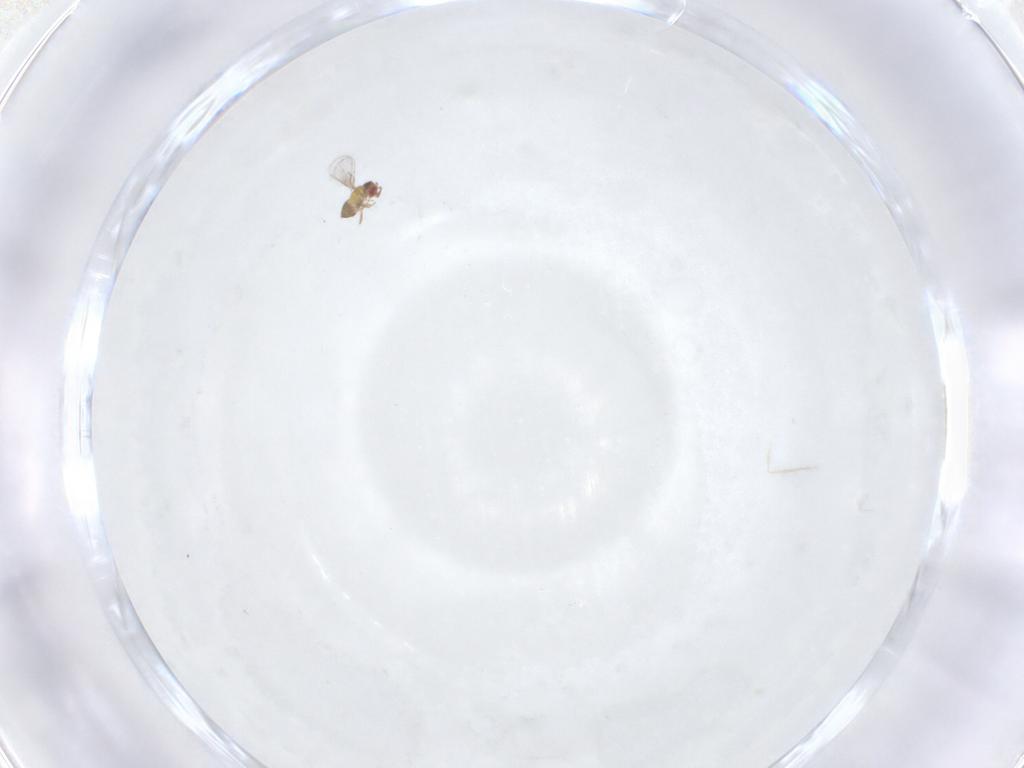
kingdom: Animalia
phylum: Arthropoda
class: Insecta
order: Hymenoptera
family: Trichogrammatidae
